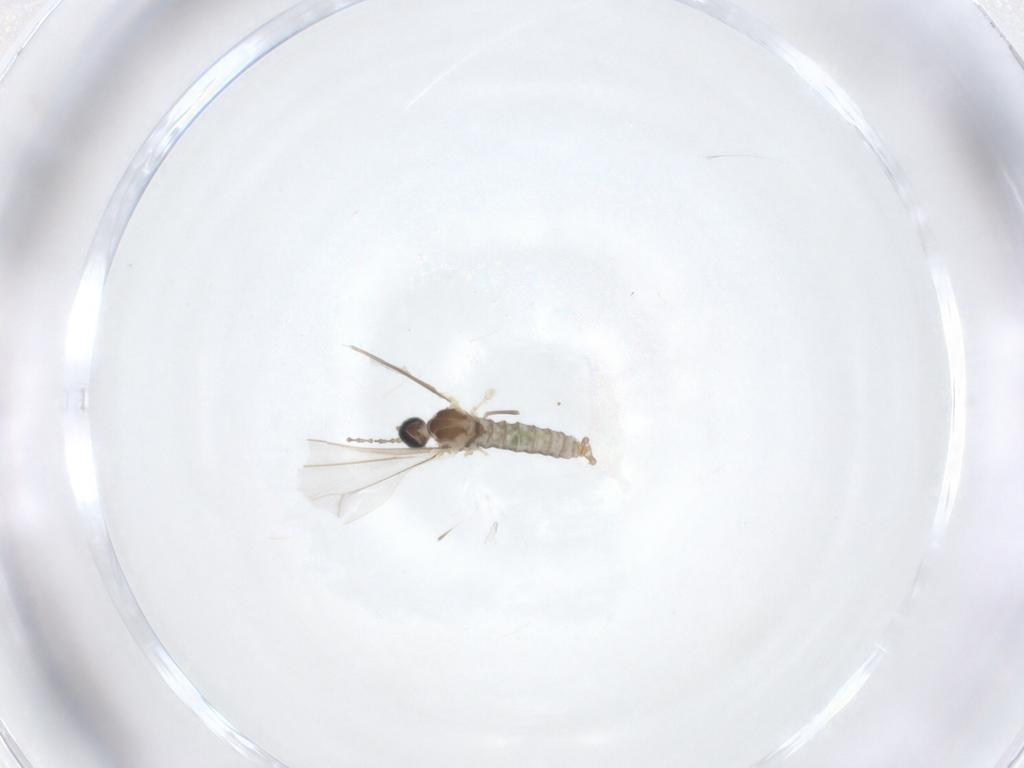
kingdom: Animalia
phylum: Arthropoda
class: Insecta
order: Diptera
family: Cecidomyiidae
